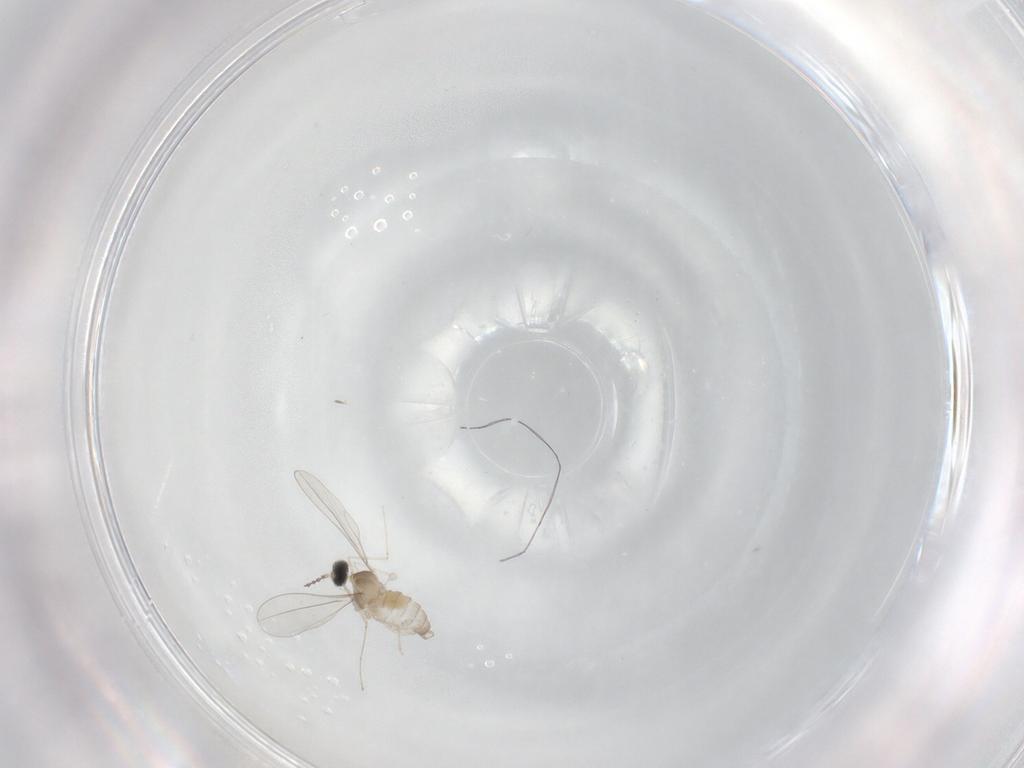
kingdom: Animalia
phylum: Arthropoda
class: Insecta
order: Diptera
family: Cecidomyiidae
